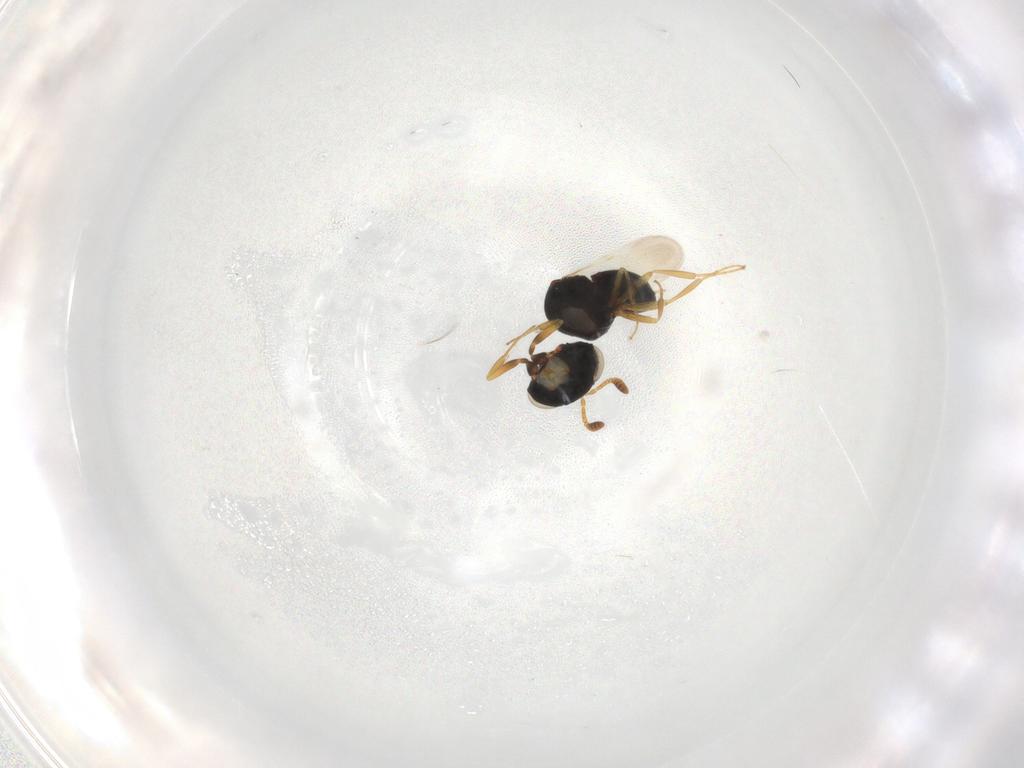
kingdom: Animalia
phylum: Arthropoda
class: Insecta
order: Hymenoptera
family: Scelionidae
